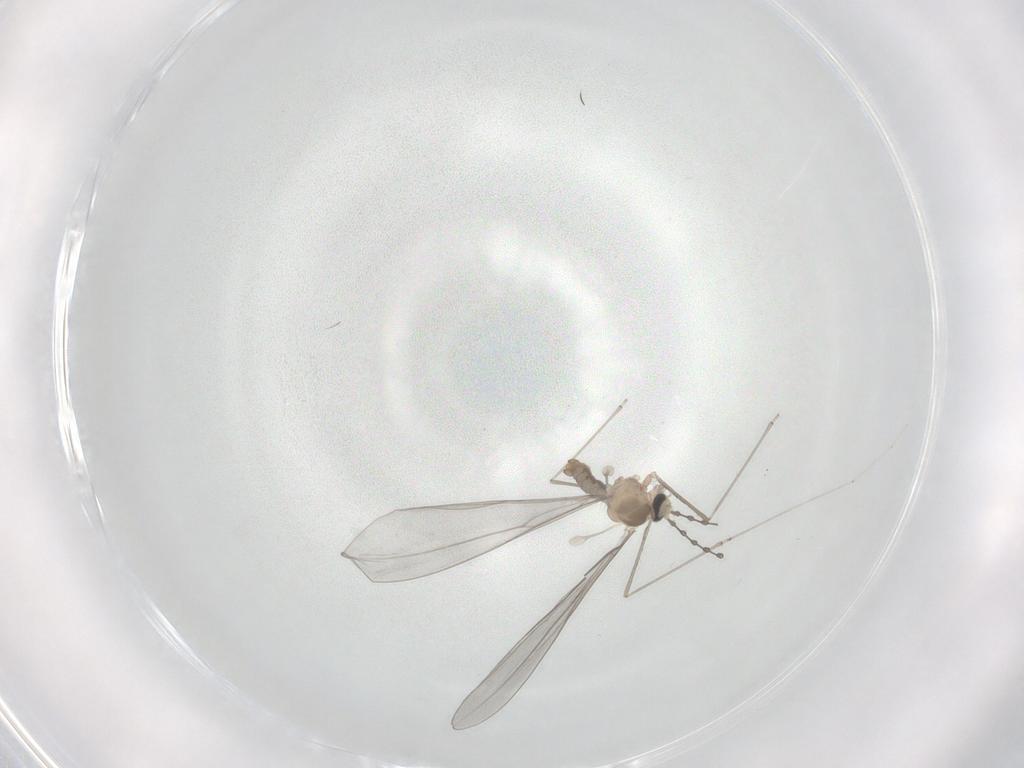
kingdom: Animalia
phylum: Arthropoda
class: Insecta
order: Diptera
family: Cecidomyiidae
